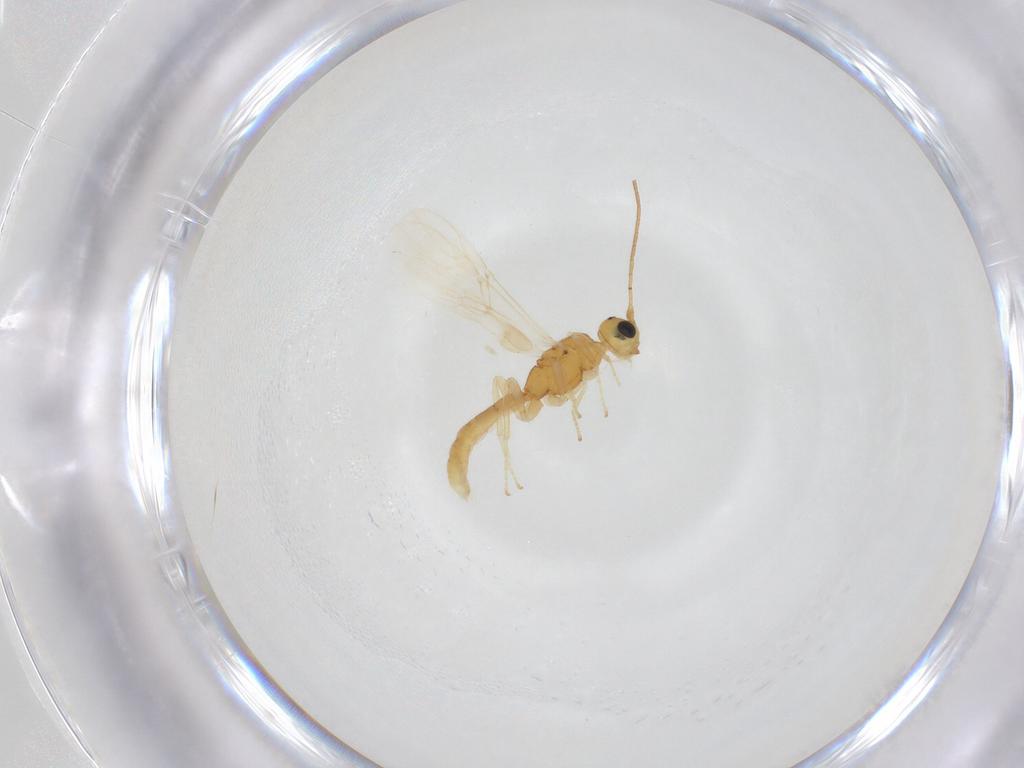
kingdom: Animalia
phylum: Arthropoda
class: Insecta
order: Hymenoptera
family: Braconidae
